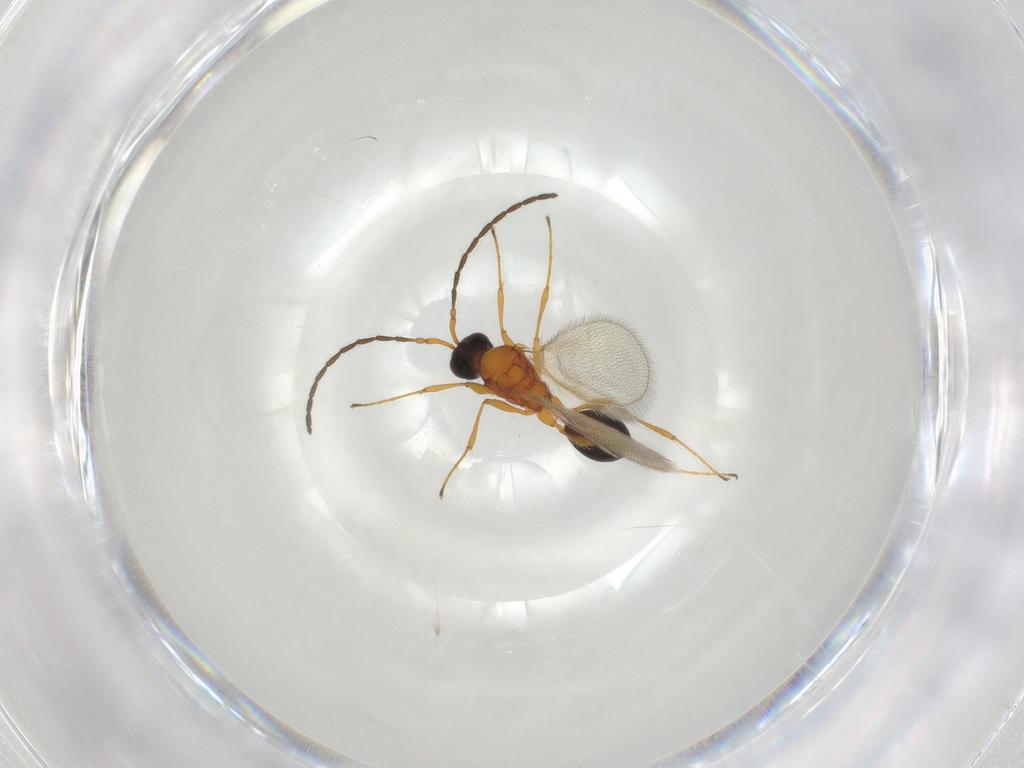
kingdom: Animalia
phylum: Arthropoda
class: Insecta
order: Hymenoptera
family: Diapriidae
